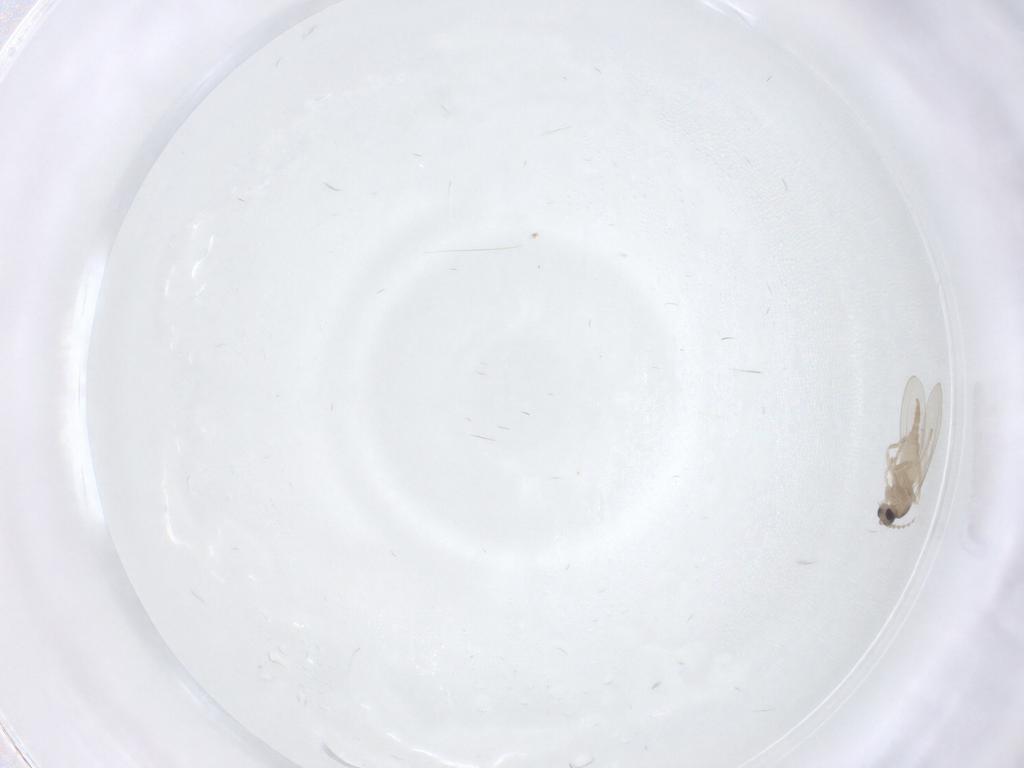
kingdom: Animalia
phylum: Arthropoda
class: Insecta
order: Diptera
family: Cecidomyiidae
